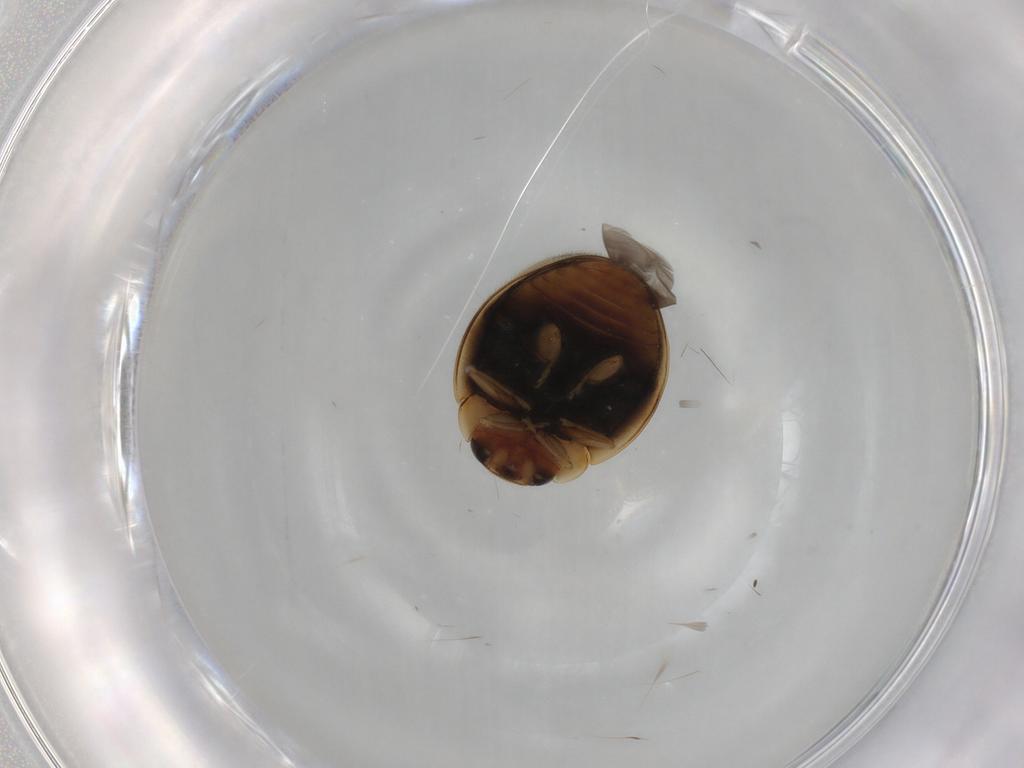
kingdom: Animalia
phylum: Arthropoda
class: Insecta
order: Coleoptera
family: Coccinellidae
